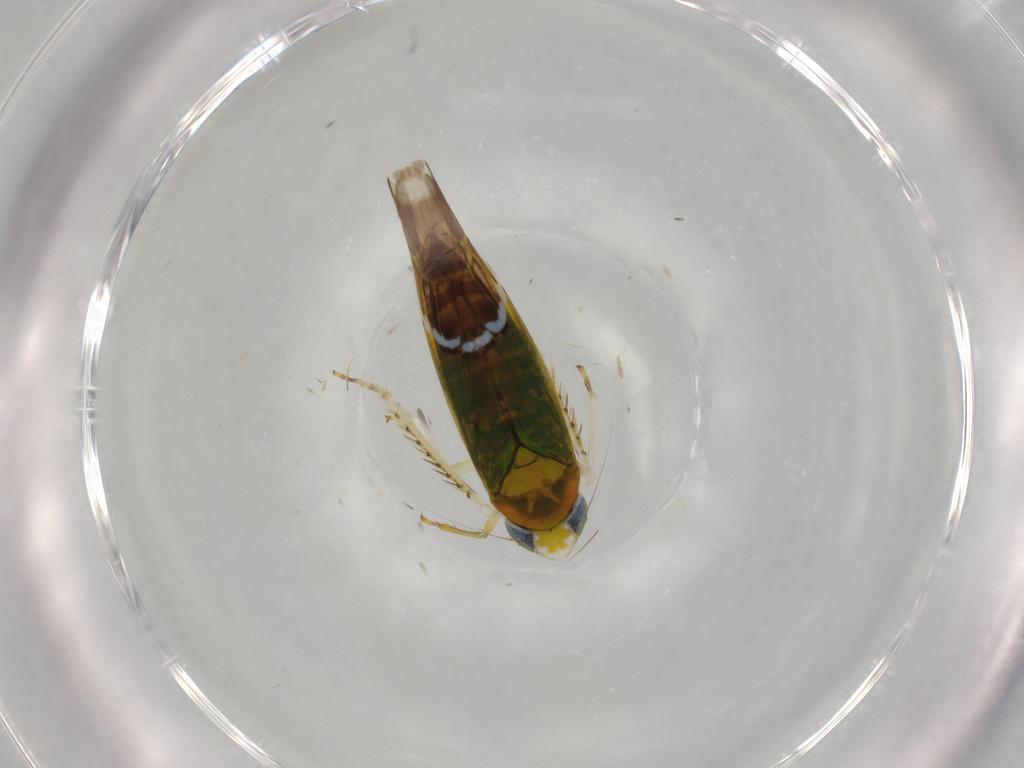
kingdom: Animalia
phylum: Arthropoda
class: Insecta
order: Hemiptera
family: Cicadellidae
